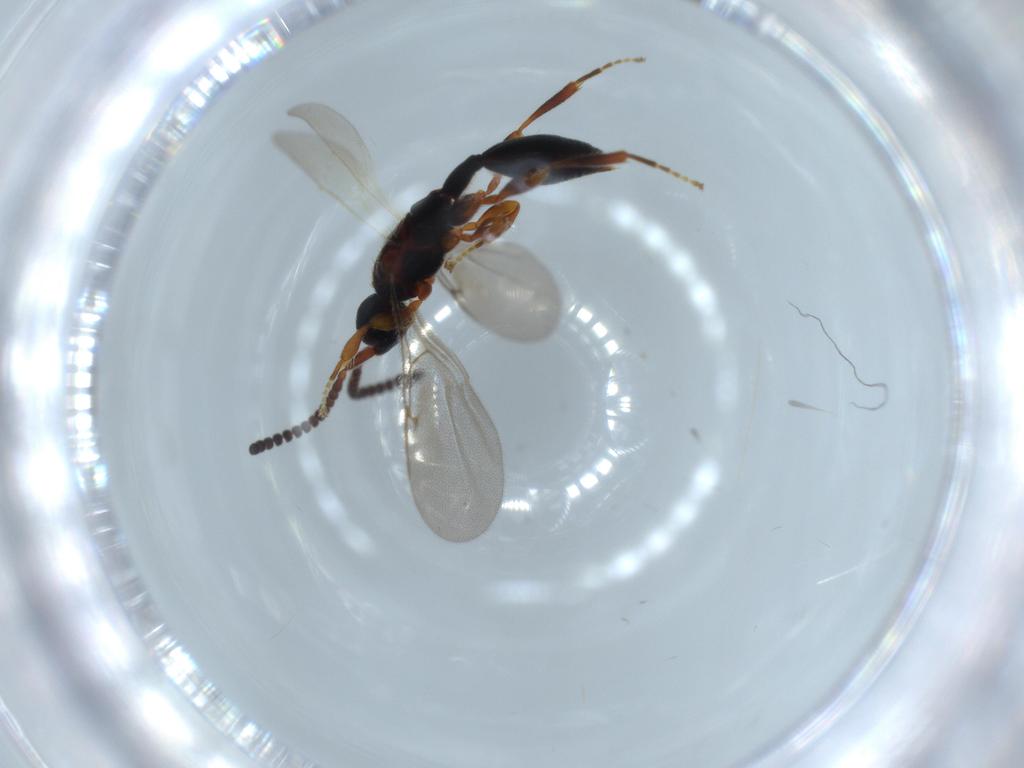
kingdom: Animalia
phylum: Arthropoda
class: Insecta
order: Hymenoptera
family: Diapriidae
